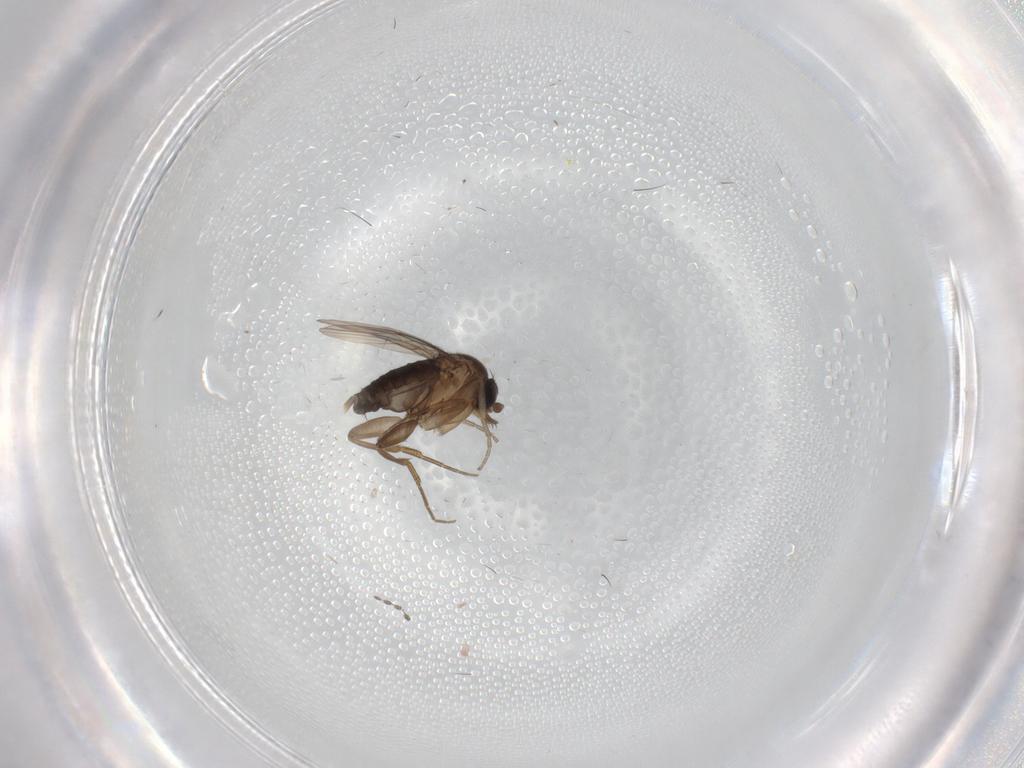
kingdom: Animalia
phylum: Arthropoda
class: Insecta
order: Diptera
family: Phoridae
